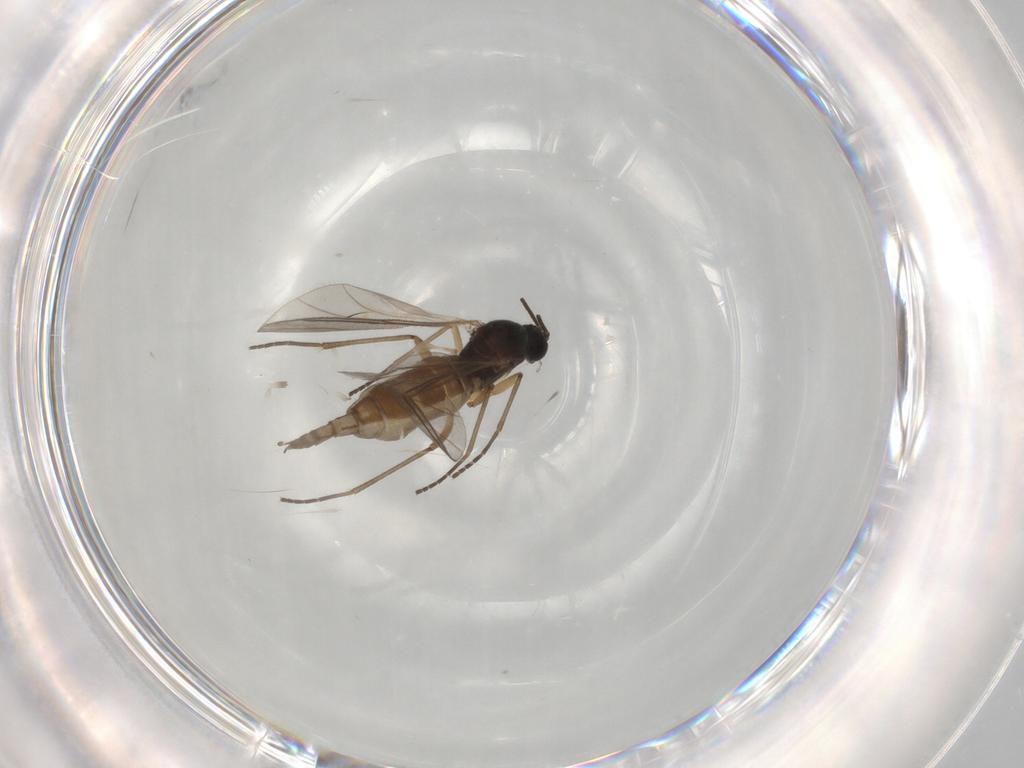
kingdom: Animalia
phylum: Arthropoda
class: Insecta
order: Diptera
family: Sciaridae
